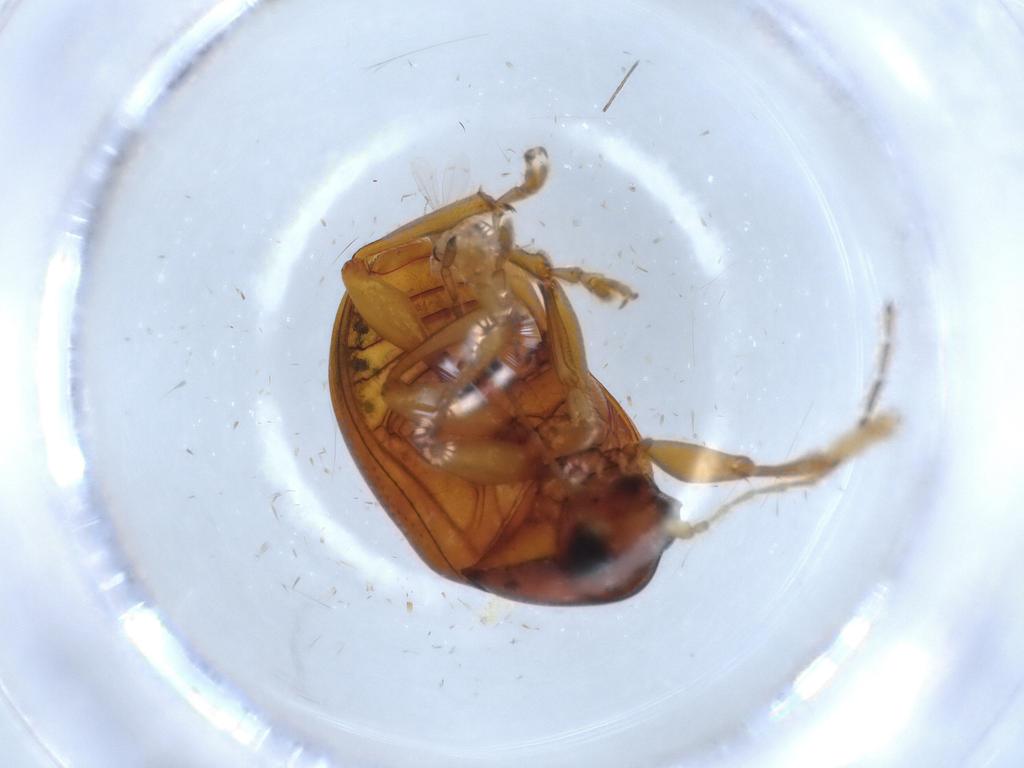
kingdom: Animalia
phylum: Arthropoda
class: Insecta
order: Coleoptera
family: Chrysomelidae
